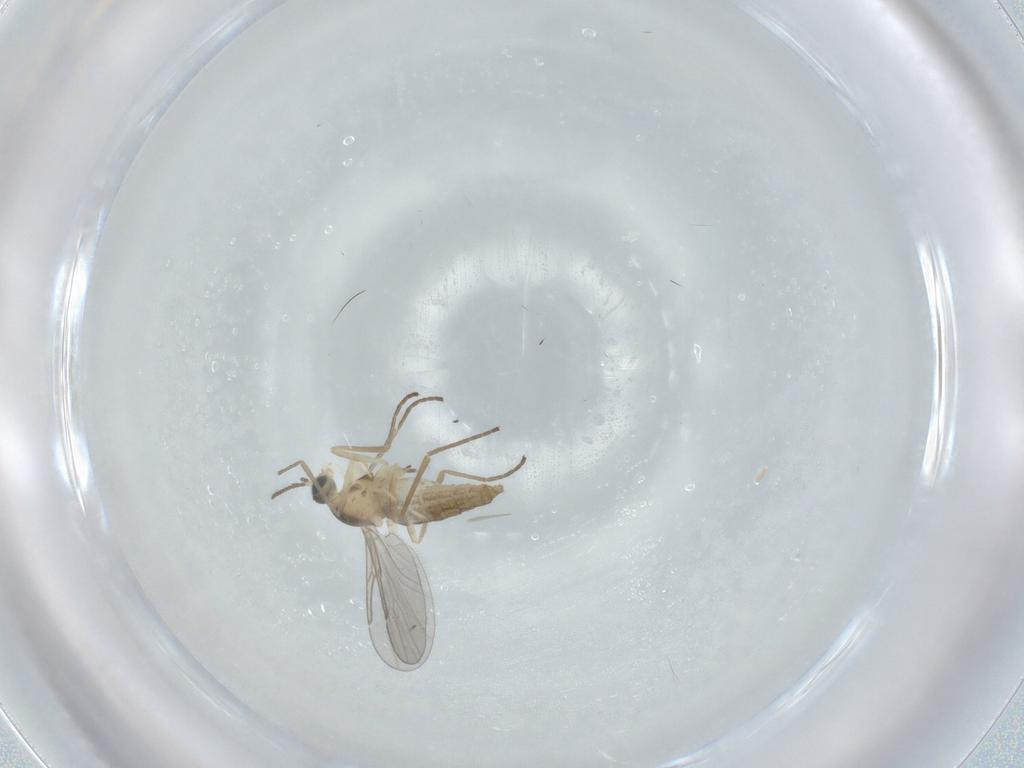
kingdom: Animalia
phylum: Arthropoda
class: Insecta
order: Diptera
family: Cecidomyiidae
